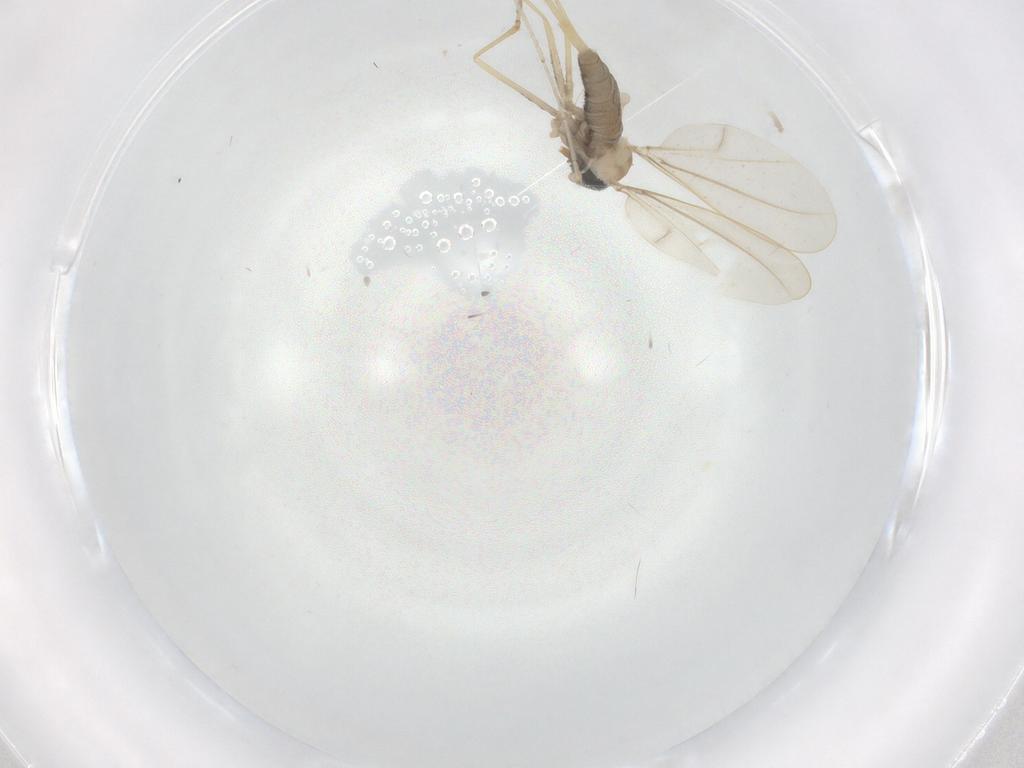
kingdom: Animalia
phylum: Arthropoda
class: Insecta
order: Diptera
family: Cecidomyiidae
